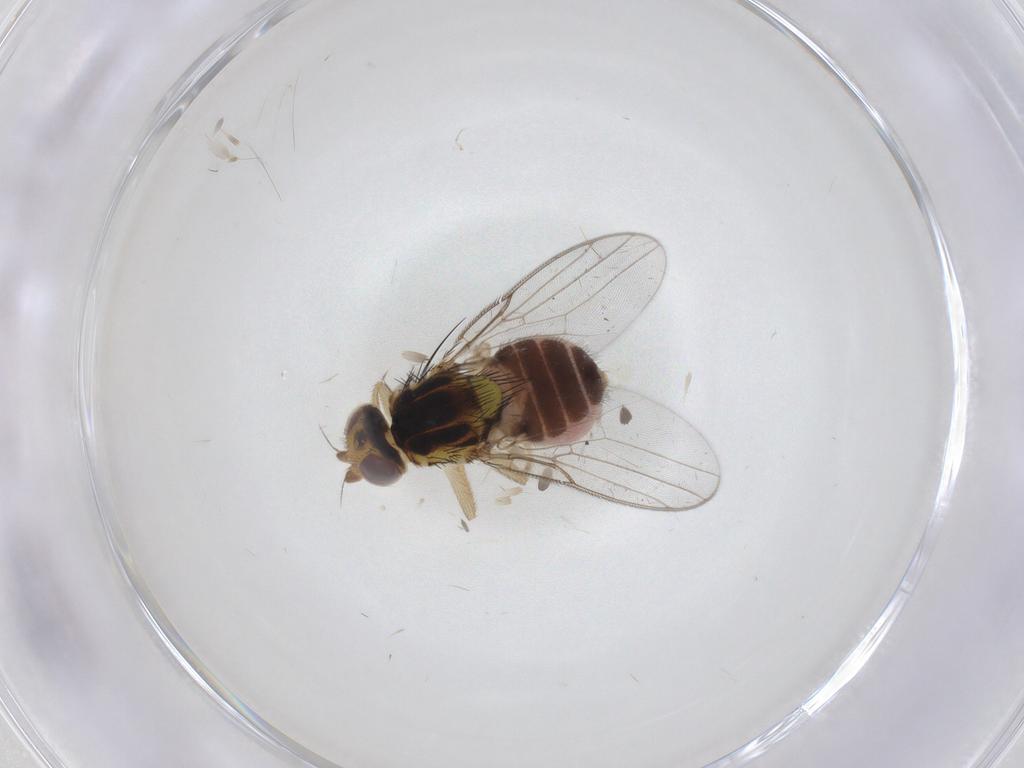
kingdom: Animalia
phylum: Arthropoda
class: Insecta
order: Diptera
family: Chloropidae
